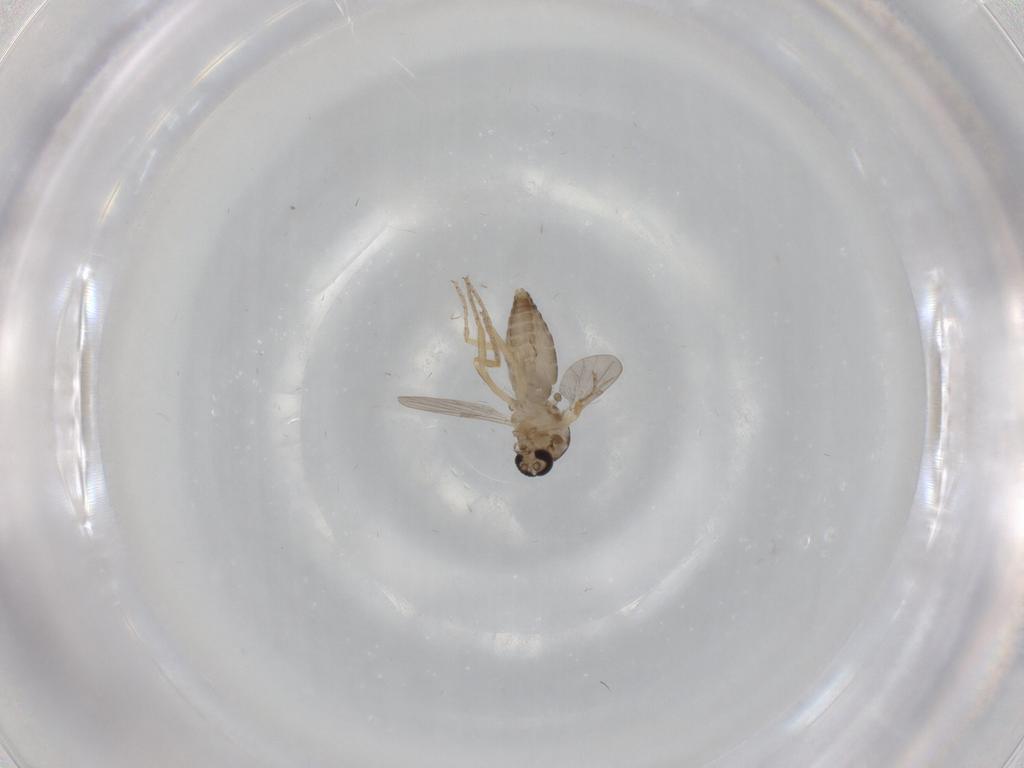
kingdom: Animalia
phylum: Arthropoda
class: Insecta
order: Diptera
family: Ceratopogonidae
